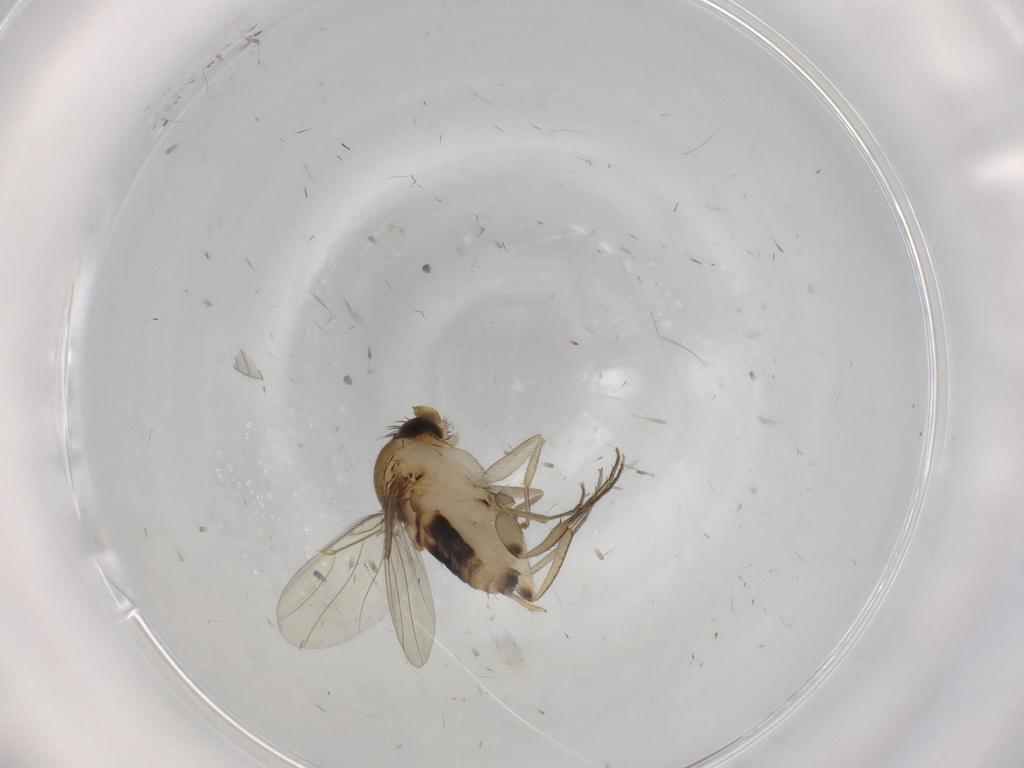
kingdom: Animalia
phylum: Arthropoda
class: Insecta
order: Diptera
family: Phoridae
